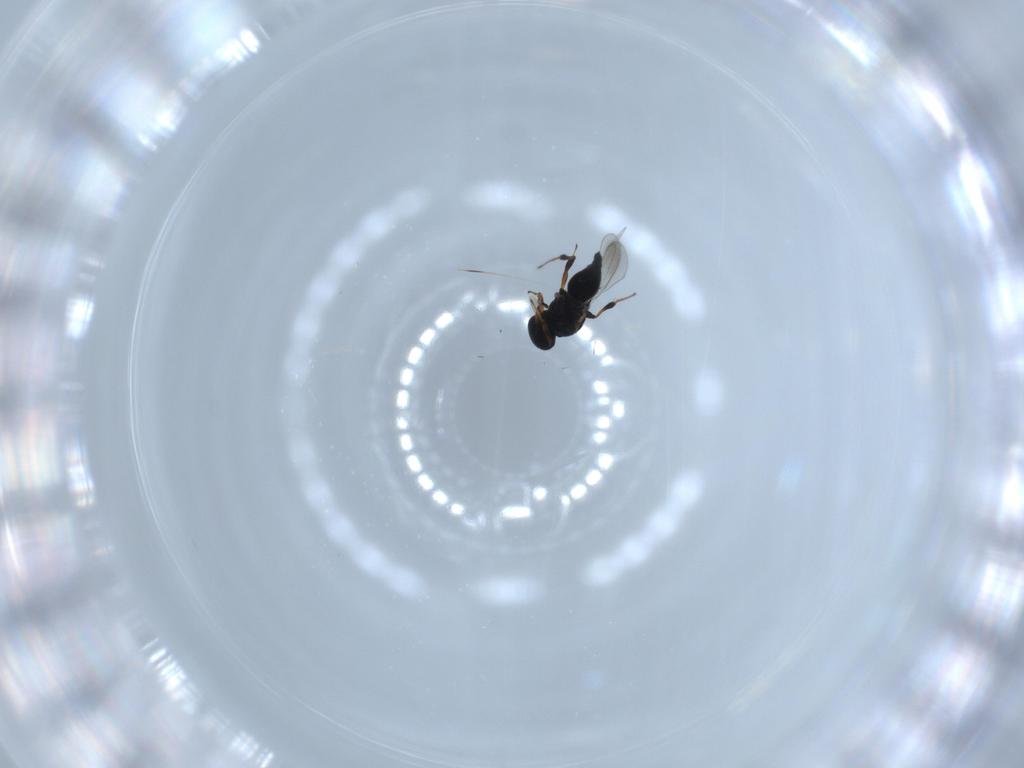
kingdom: Animalia
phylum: Arthropoda
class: Insecta
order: Hymenoptera
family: Platygastridae
